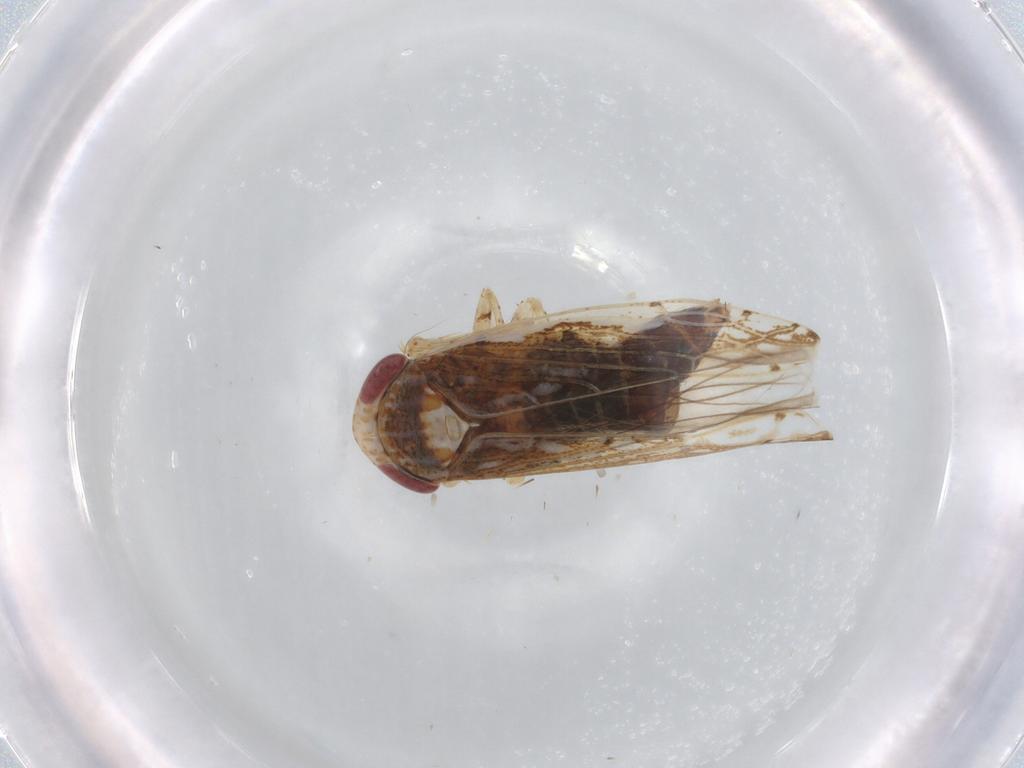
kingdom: Animalia
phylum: Arthropoda
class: Insecta
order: Hemiptera
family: Cicadellidae
